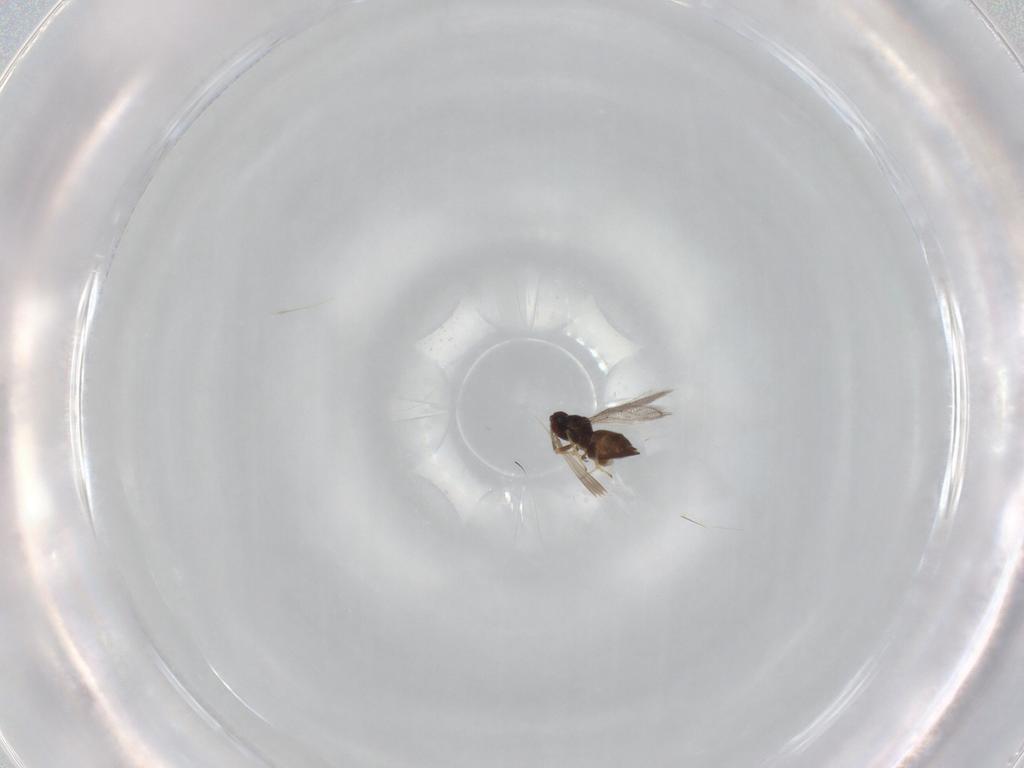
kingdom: Animalia
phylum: Arthropoda
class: Insecta
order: Hymenoptera
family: Eulophidae
